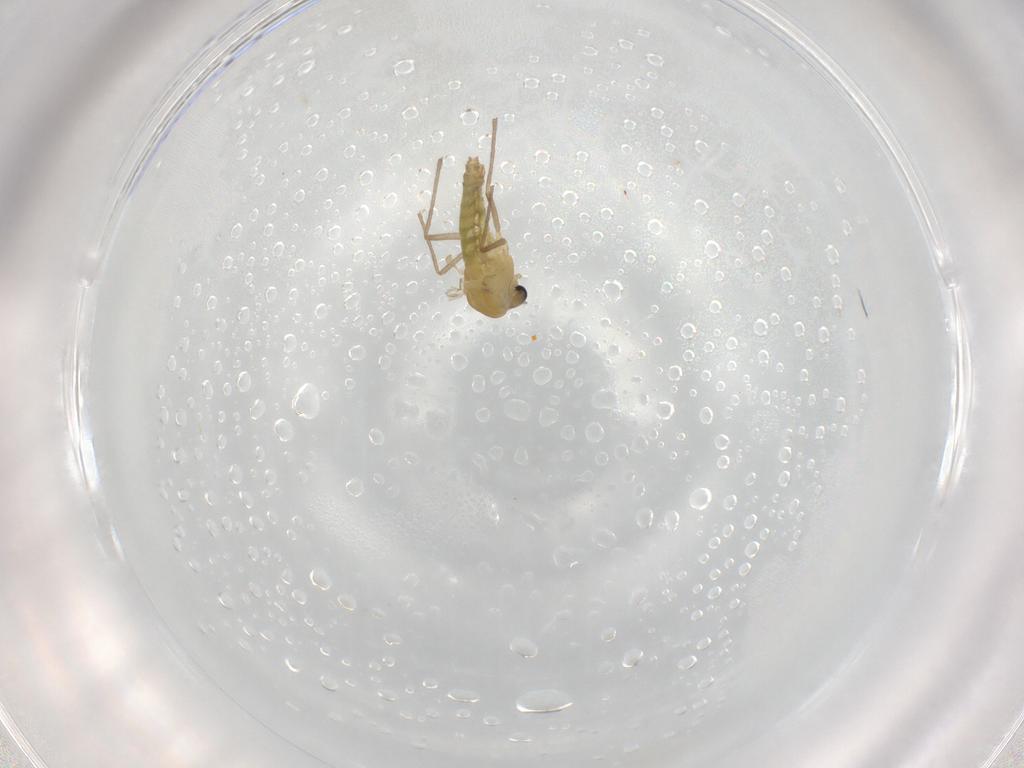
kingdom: Animalia
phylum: Arthropoda
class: Insecta
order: Diptera
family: Chironomidae
